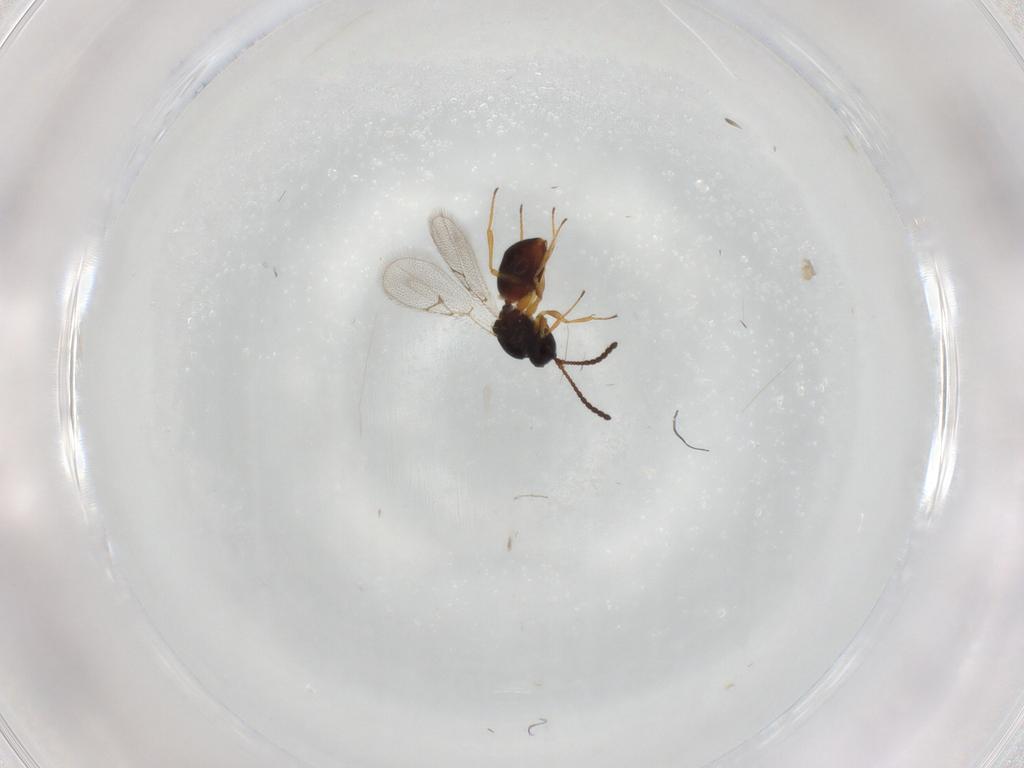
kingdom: Animalia
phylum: Arthropoda
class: Insecta
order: Hymenoptera
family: Figitidae
